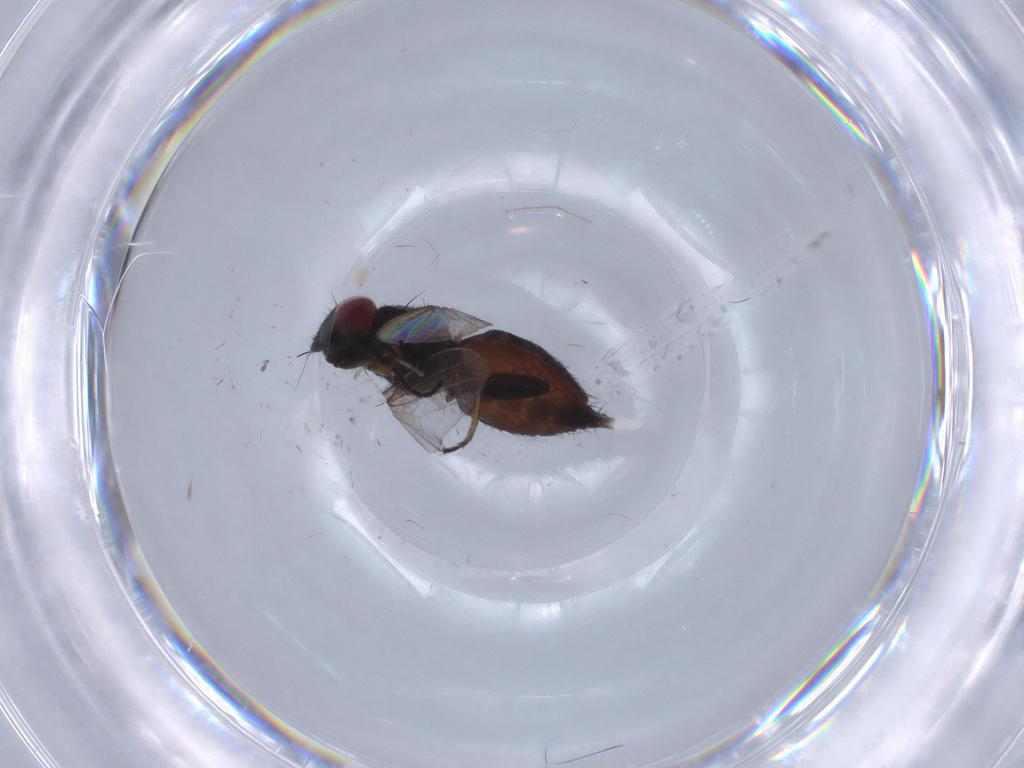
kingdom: Animalia
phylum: Arthropoda
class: Insecta
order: Diptera
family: Milichiidae
